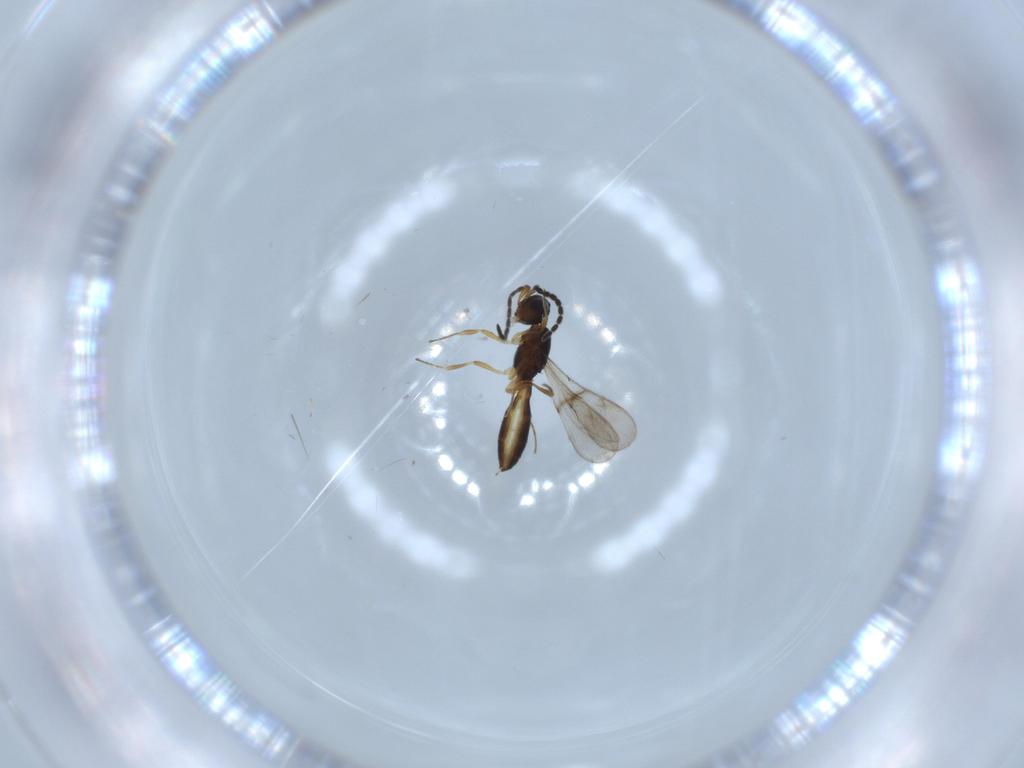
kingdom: Animalia
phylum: Arthropoda
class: Insecta
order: Hymenoptera
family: Scelionidae
